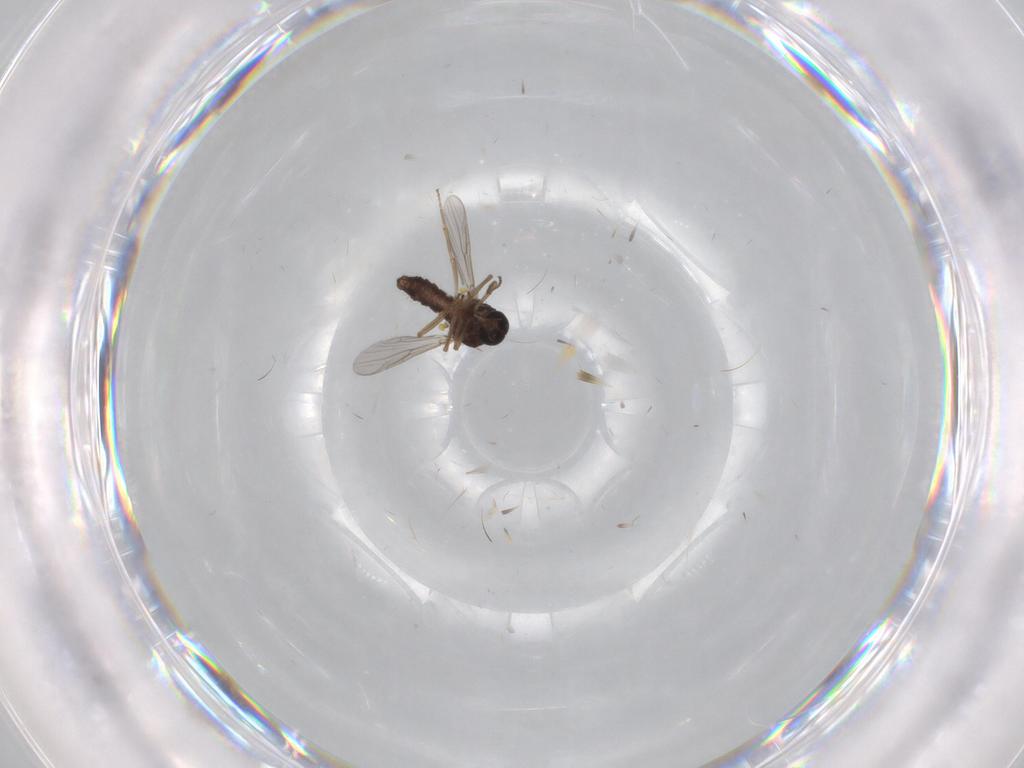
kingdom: Animalia
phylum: Arthropoda
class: Insecta
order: Diptera
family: Ceratopogonidae
